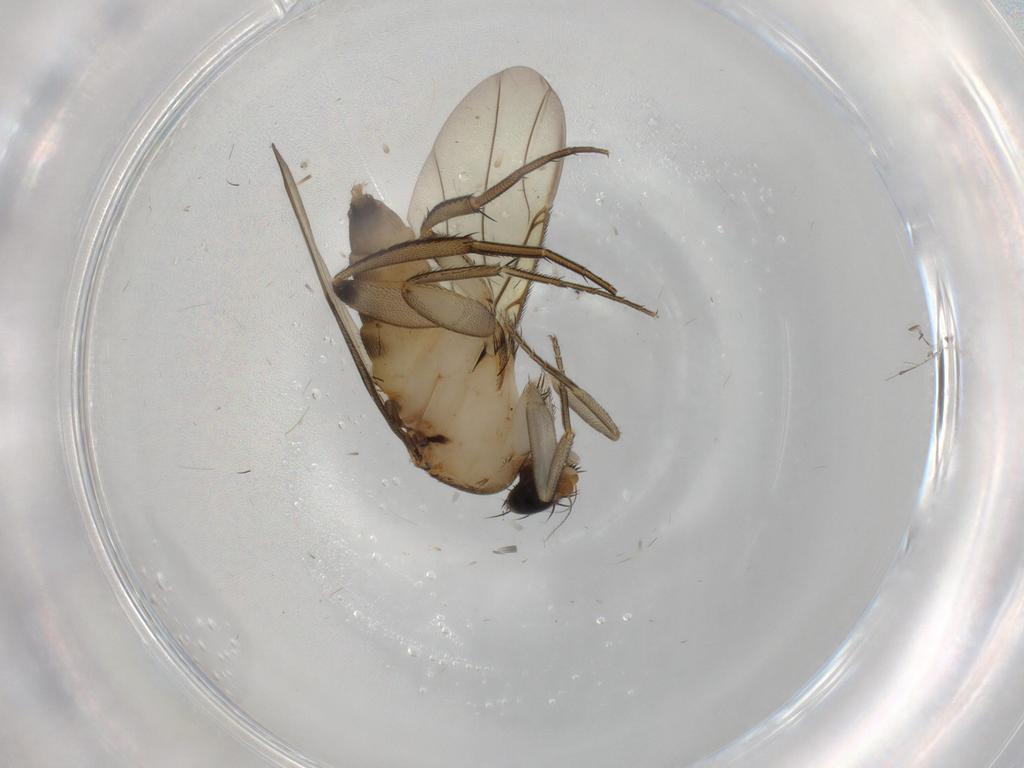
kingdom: Animalia
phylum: Arthropoda
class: Insecta
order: Diptera
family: Phoridae
